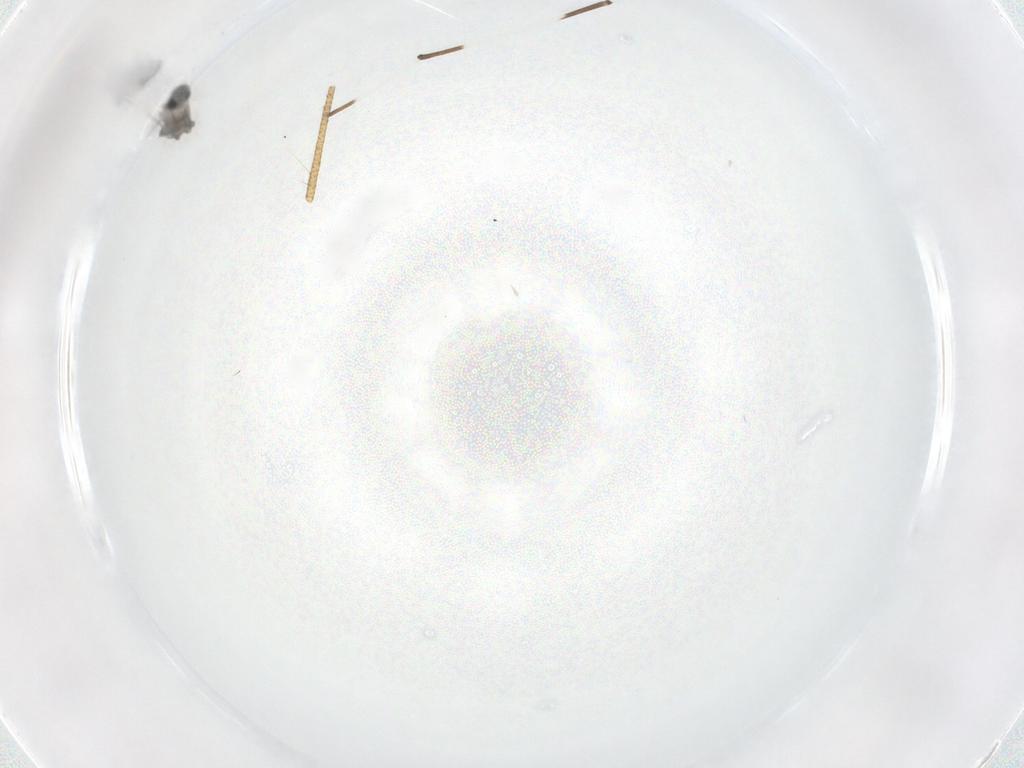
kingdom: Animalia
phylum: Arthropoda
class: Insecta
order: Diptera
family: Chironomidae
